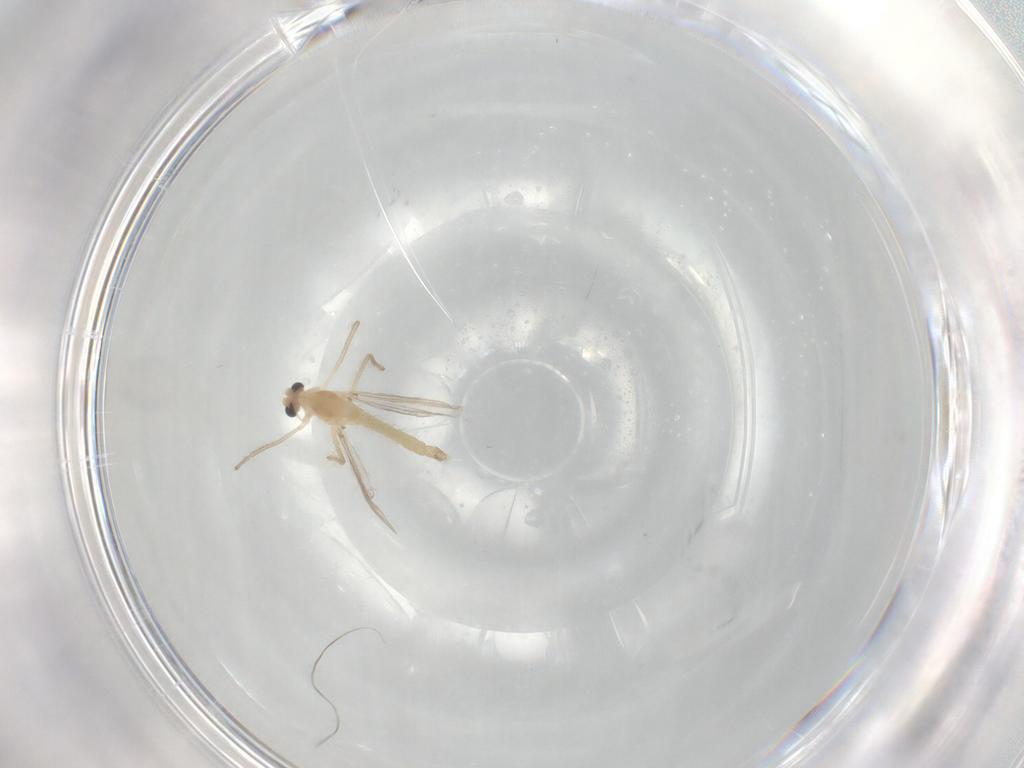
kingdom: Animalia
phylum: Arthropoda
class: Insecta
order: Diptera
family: Chironomidae
